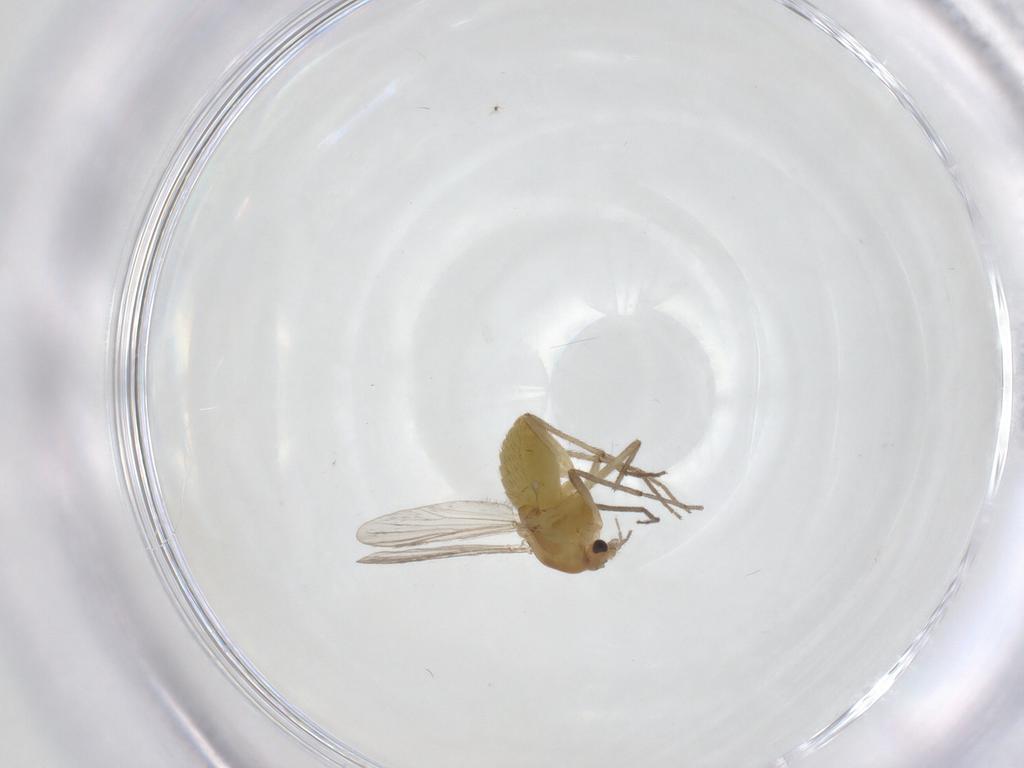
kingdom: Animalia
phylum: Arthropoda
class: Insecta
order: Diptera
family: Chironomidae
